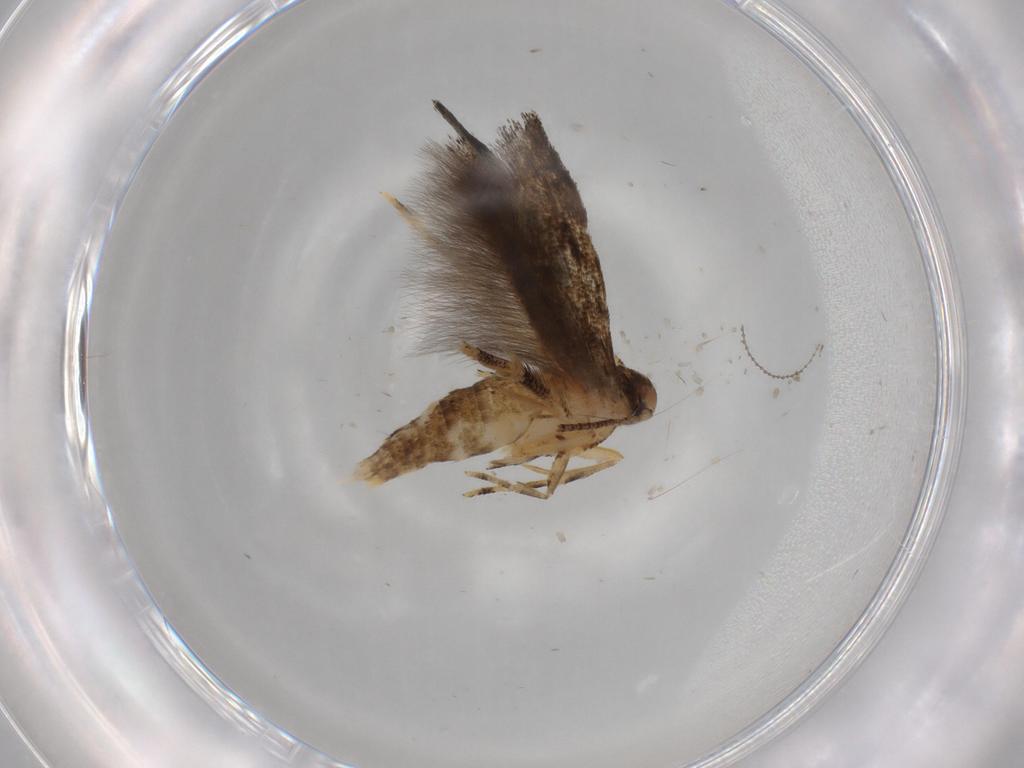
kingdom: Animalia
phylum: Arthropoda
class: Insecta
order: Lepidoptera
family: Momphidae
